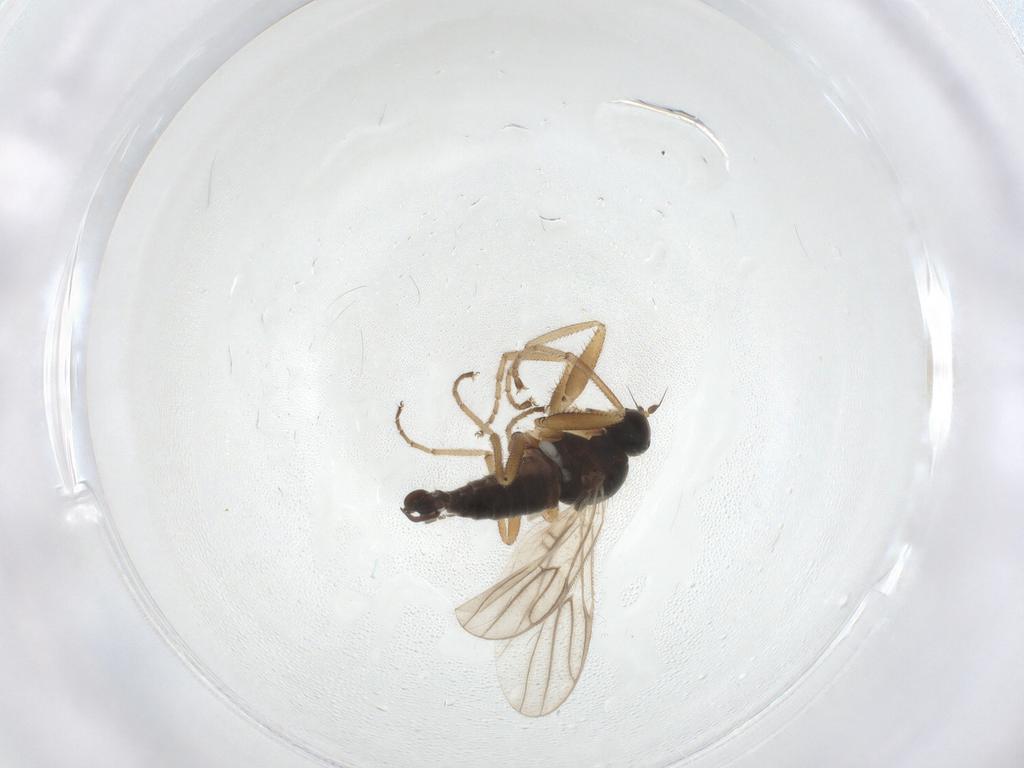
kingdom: Animalia
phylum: Arthropoda
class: Insecta
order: Diptera
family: Hybotidae
